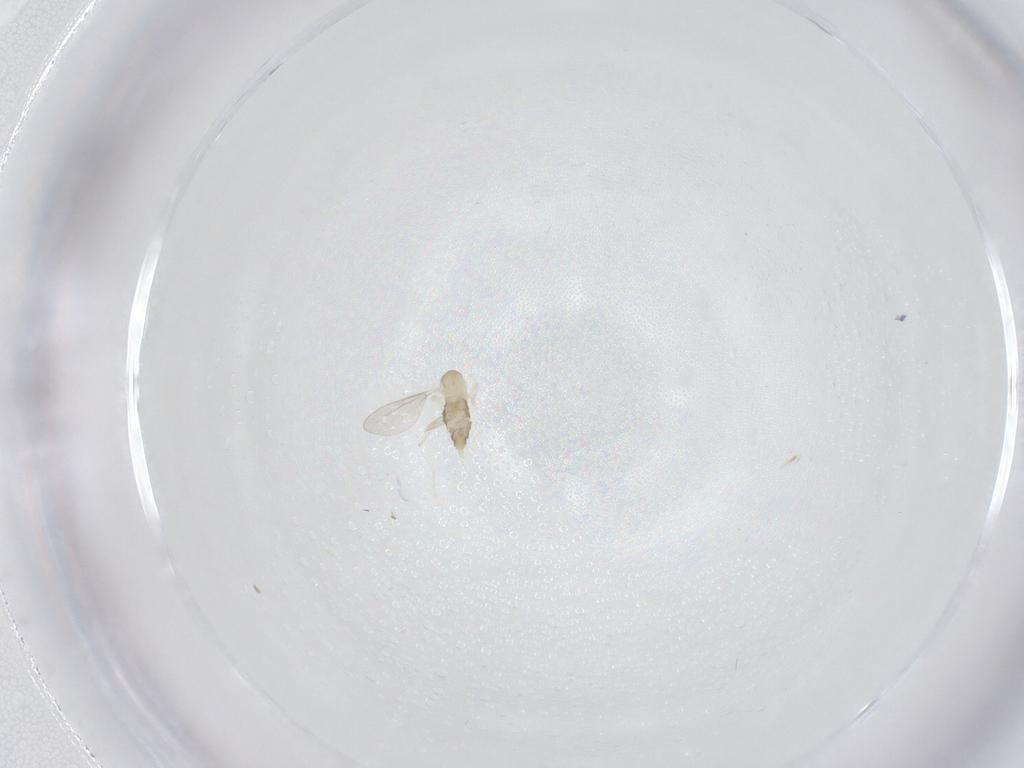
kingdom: Animalia
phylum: Arthropoda
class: Insecta
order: Diptera
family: Cecidomyiidae
